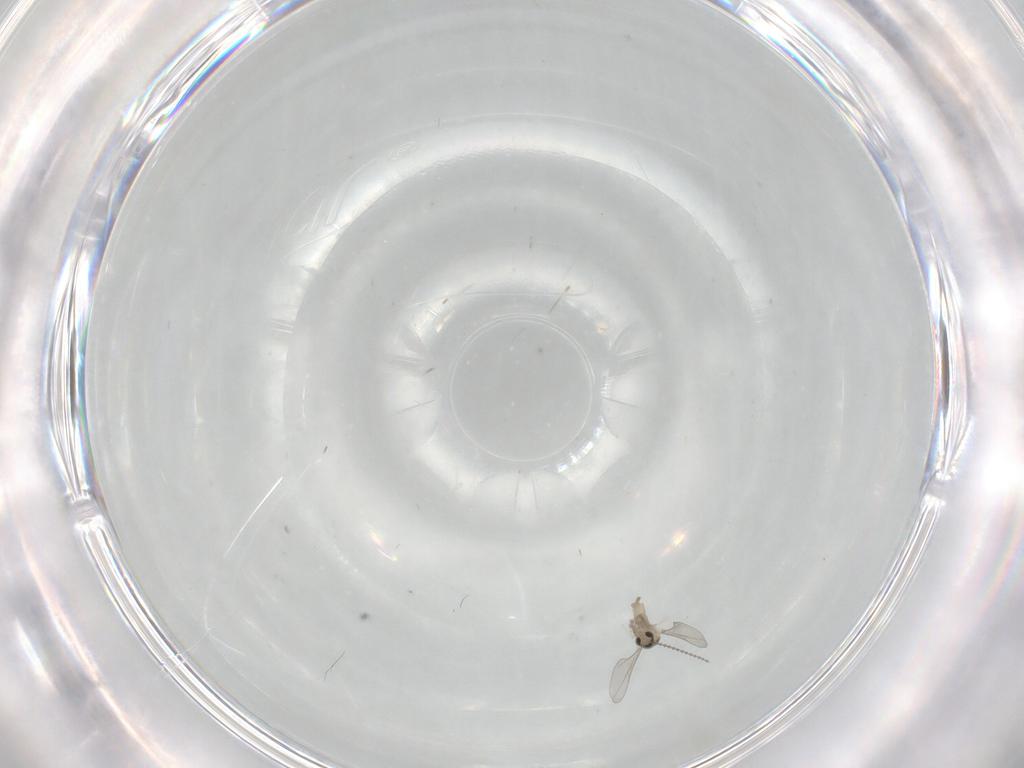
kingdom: Animalia
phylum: Arthropoda
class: Insecta
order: Diptera
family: Cecidomyiidae
